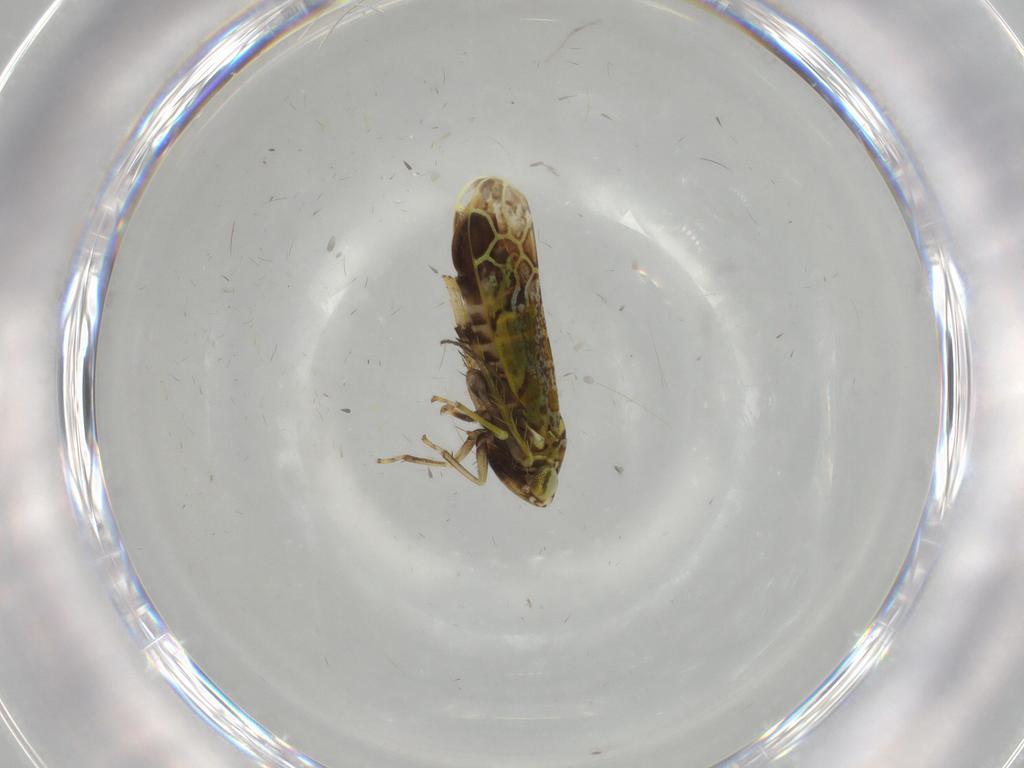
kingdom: Animalia
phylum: Arthropoda
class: Insecta
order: Hemiptera
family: Cicadellidae
